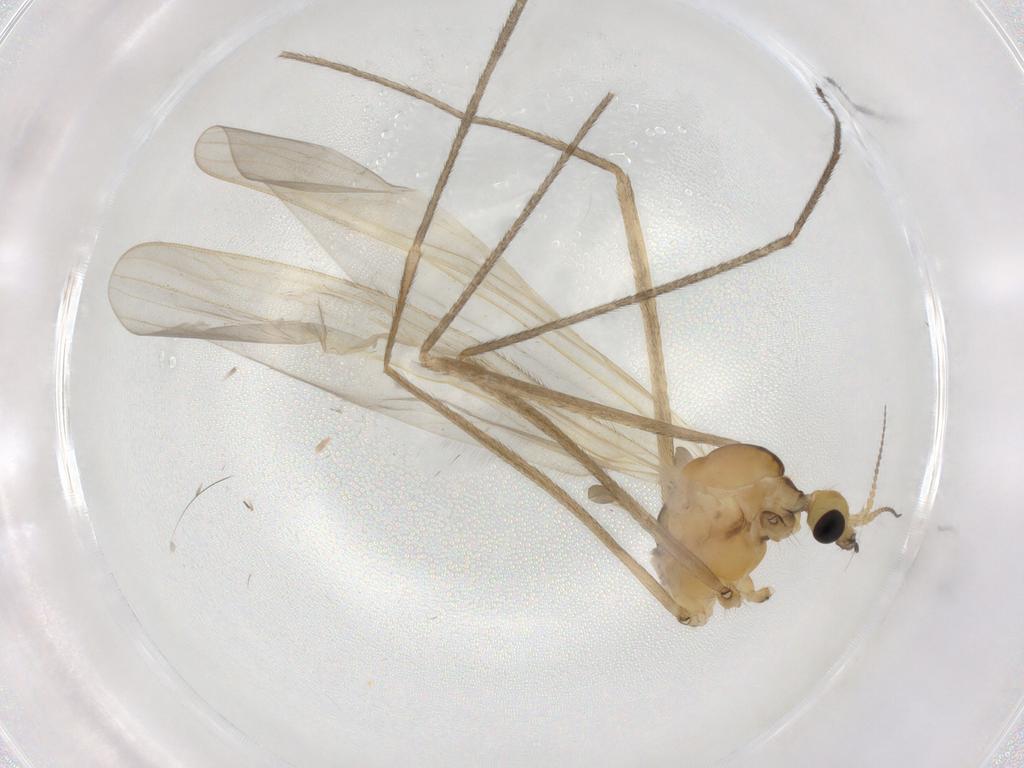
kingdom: Animalia
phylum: Arthropoda
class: Insecta
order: Diptera
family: Limoniidae
